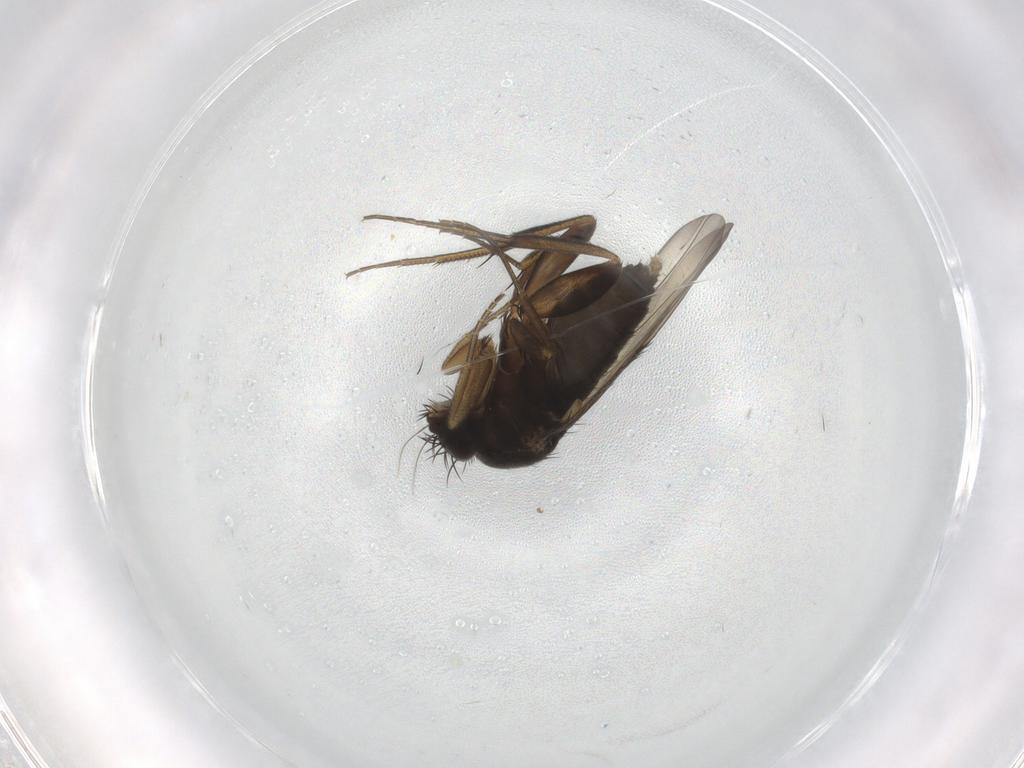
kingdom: Animalia
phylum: Arthropoda
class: Insecta
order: Diptera
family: Phoridae
